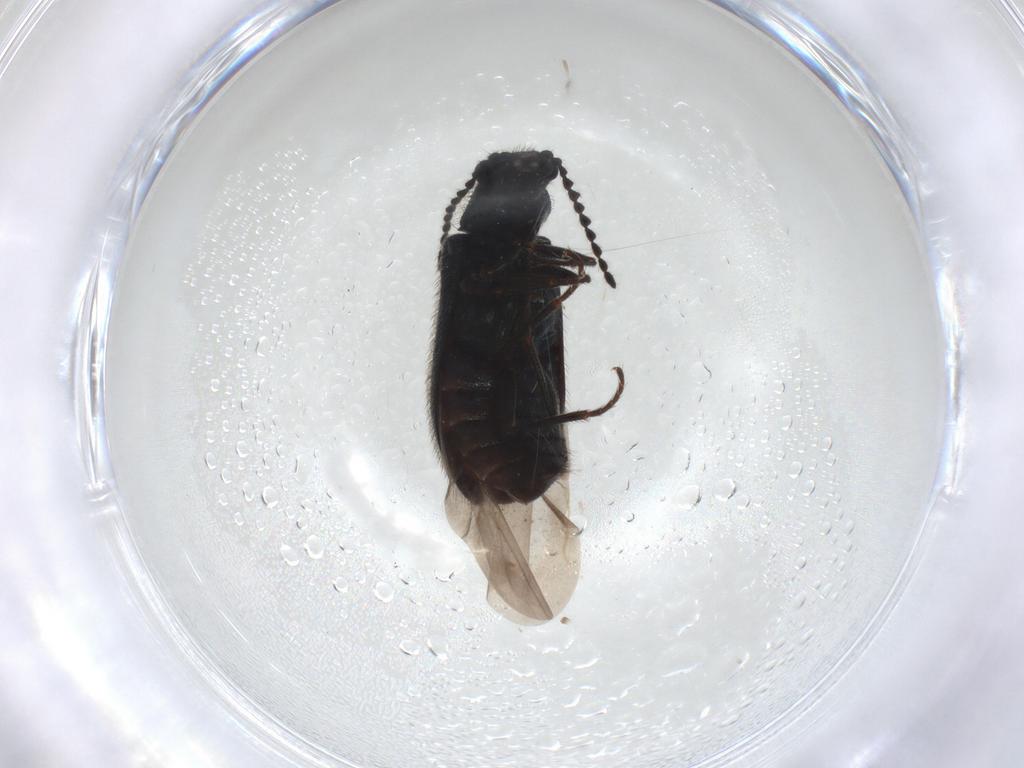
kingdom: Animalia
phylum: Arthropoda
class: Insecta
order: Coleoptera
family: Melyridae
